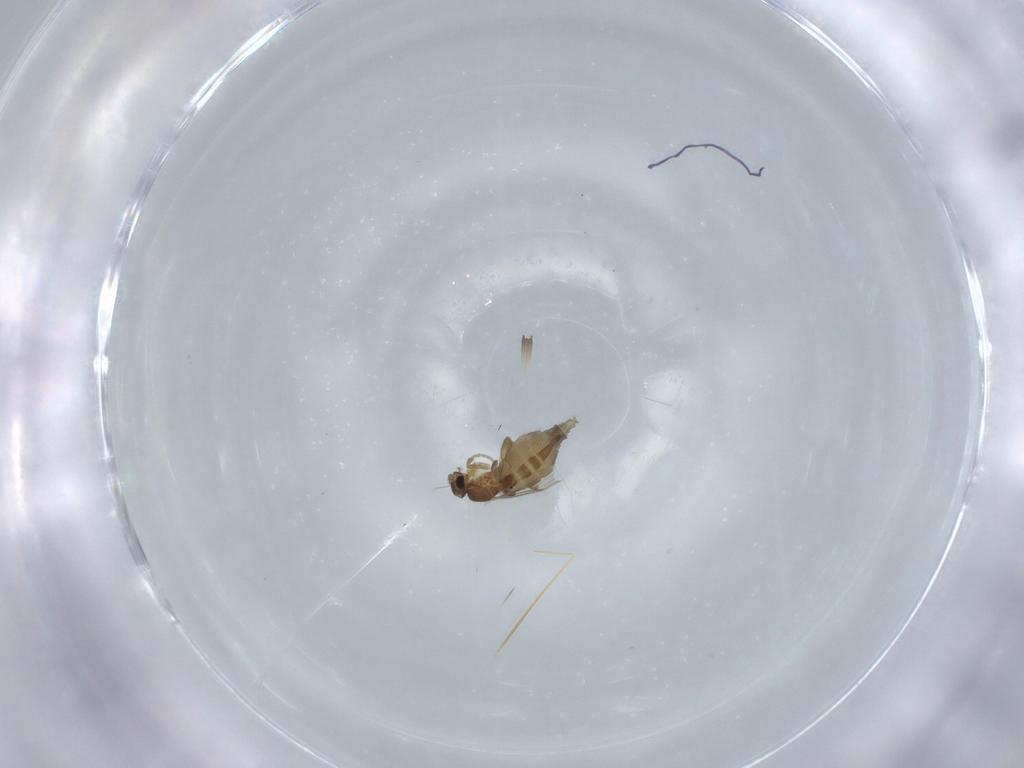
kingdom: Animalia
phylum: Arthropoda
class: Insecta
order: Diptera
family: Phoridae
